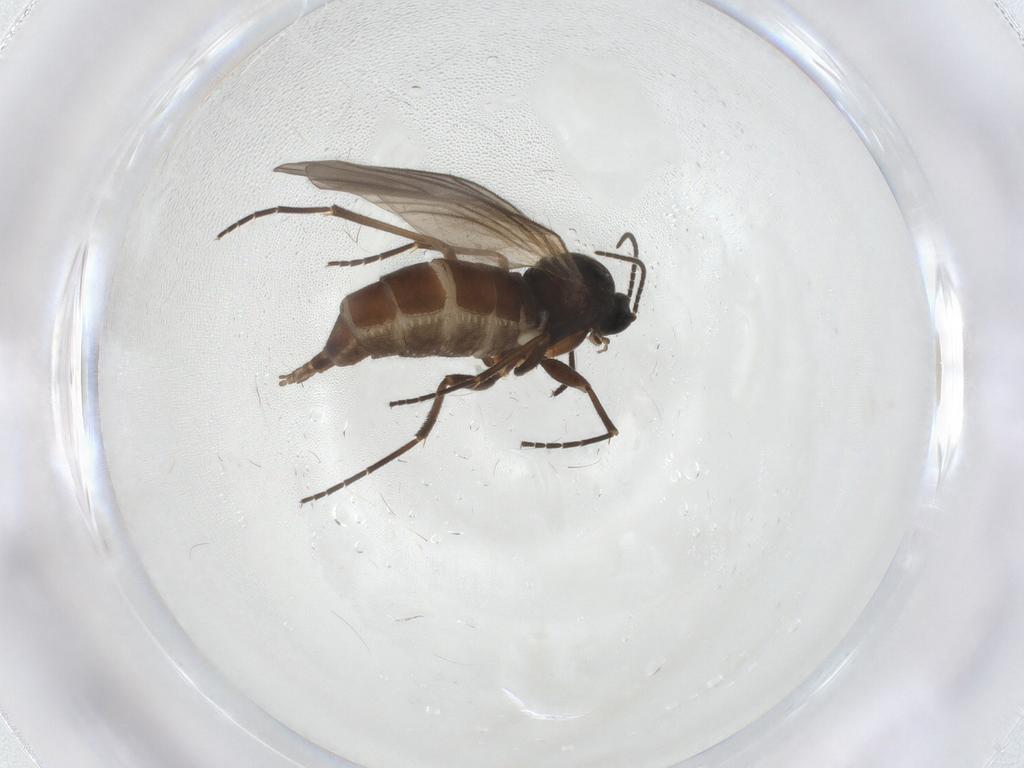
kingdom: Animalia
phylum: Arthropoda
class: Insecta
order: Diptera
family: Sciaridae
